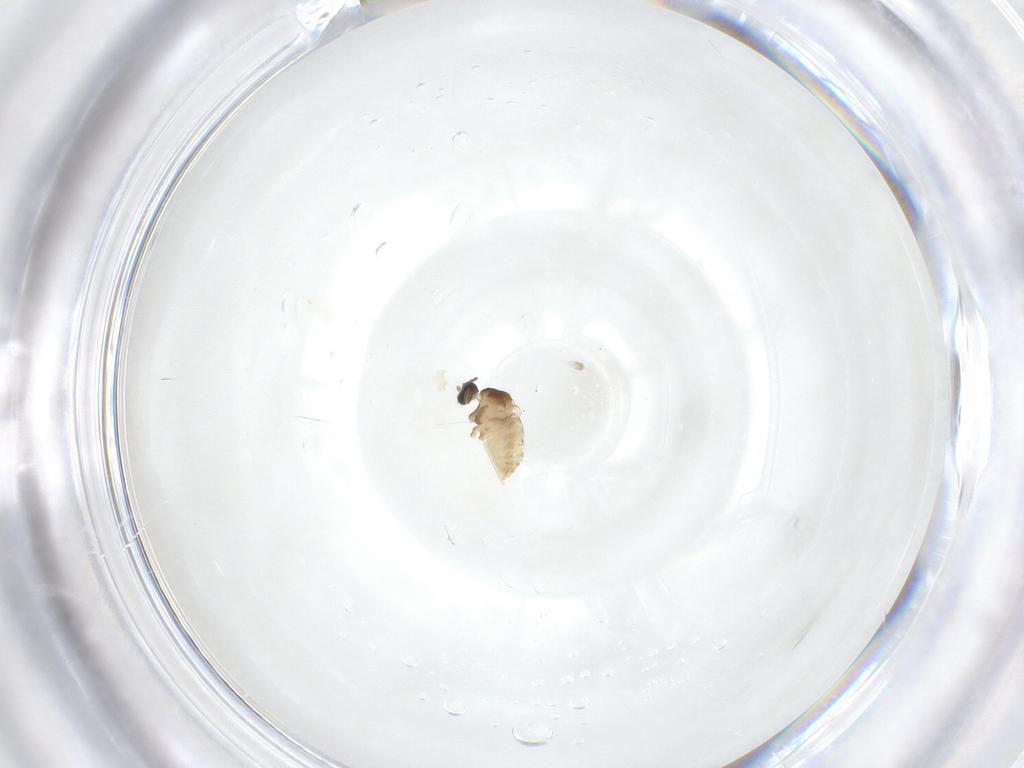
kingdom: Animalia
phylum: Arthropoda
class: Insecta
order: Diptera
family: Cecidomyiidae
